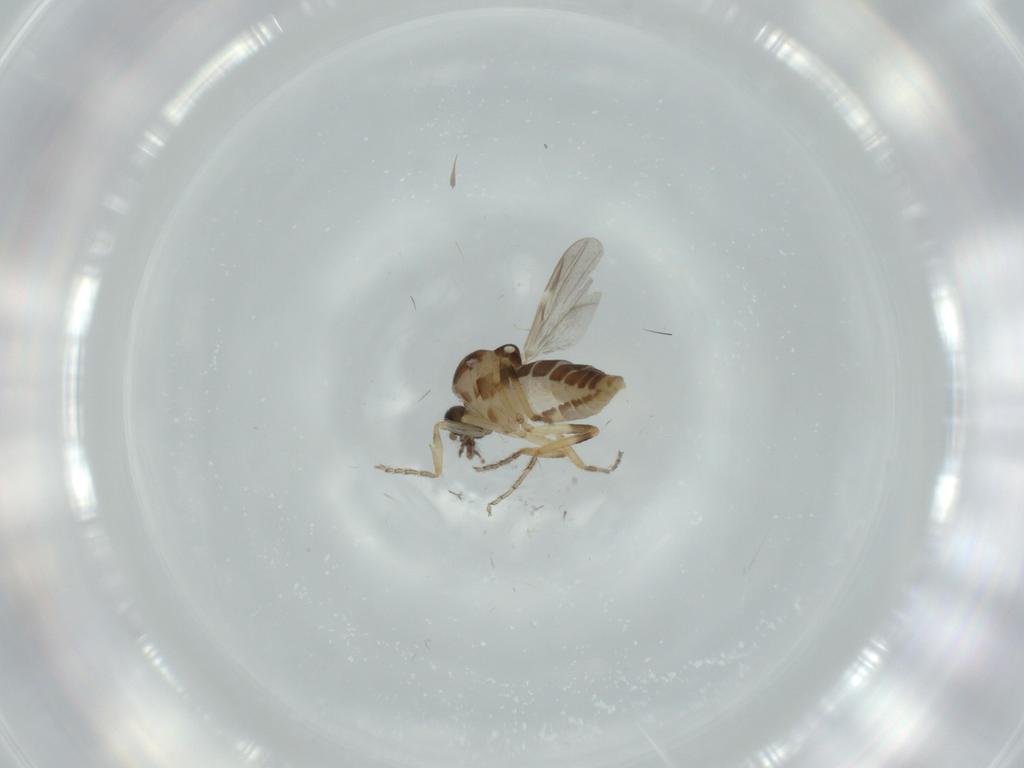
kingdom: Animalia
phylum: Arthropoda
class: Insecta
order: Diptera
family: Ceratopogonidae
